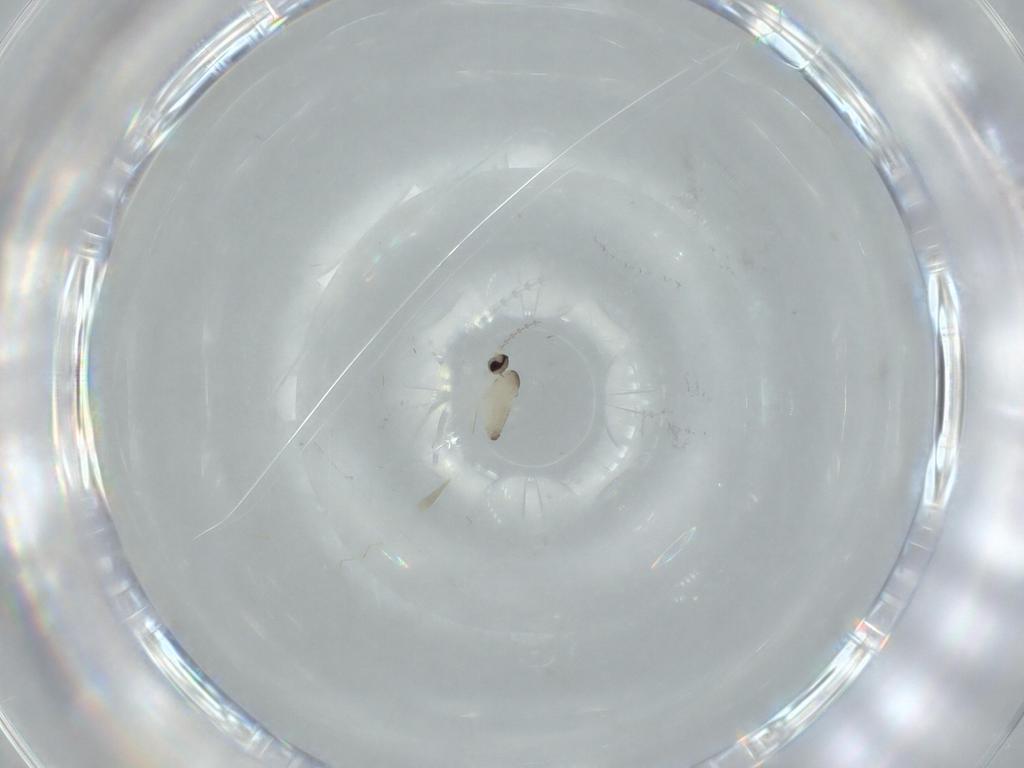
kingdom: Animalia
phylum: Arthropoda
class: Insecta
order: Diptera
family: Cecidomyiidae
